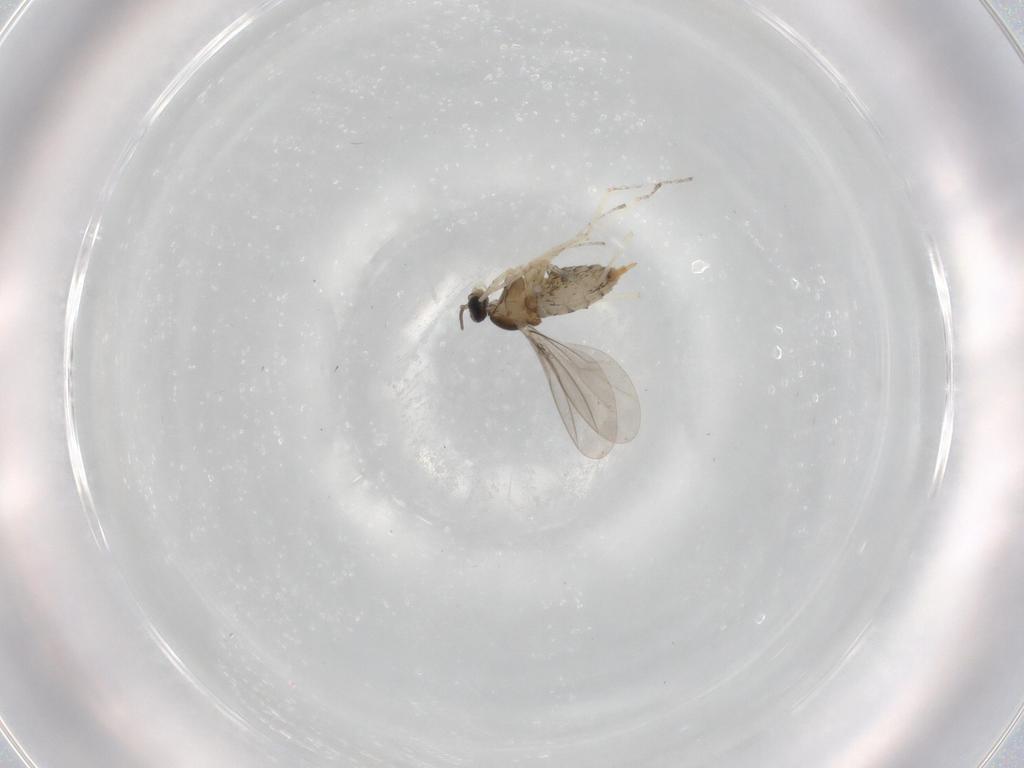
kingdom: Animalia
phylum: Arthropoda
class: Insecta
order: Diptera
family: Cecidomyiidae
